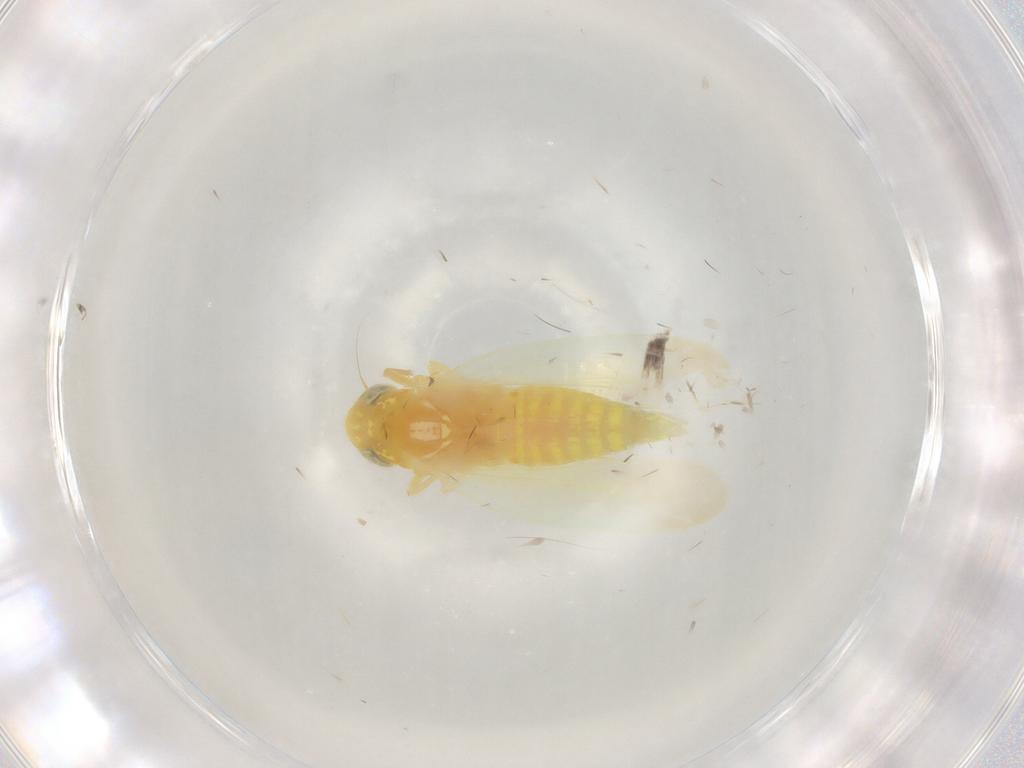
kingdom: Animalia
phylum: Arthropoda
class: Insecta
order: Hemiptera
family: Cicadellidae
